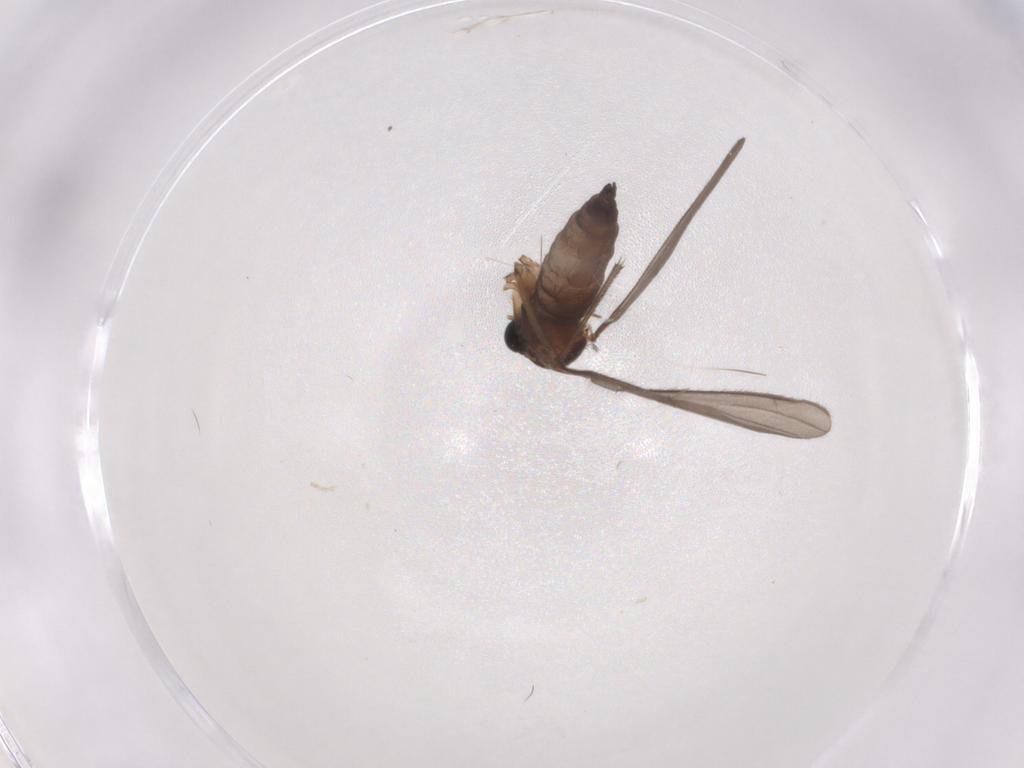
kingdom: Animalia
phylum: Arthropoda
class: Insecta
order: Diptera
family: Sciaridae
